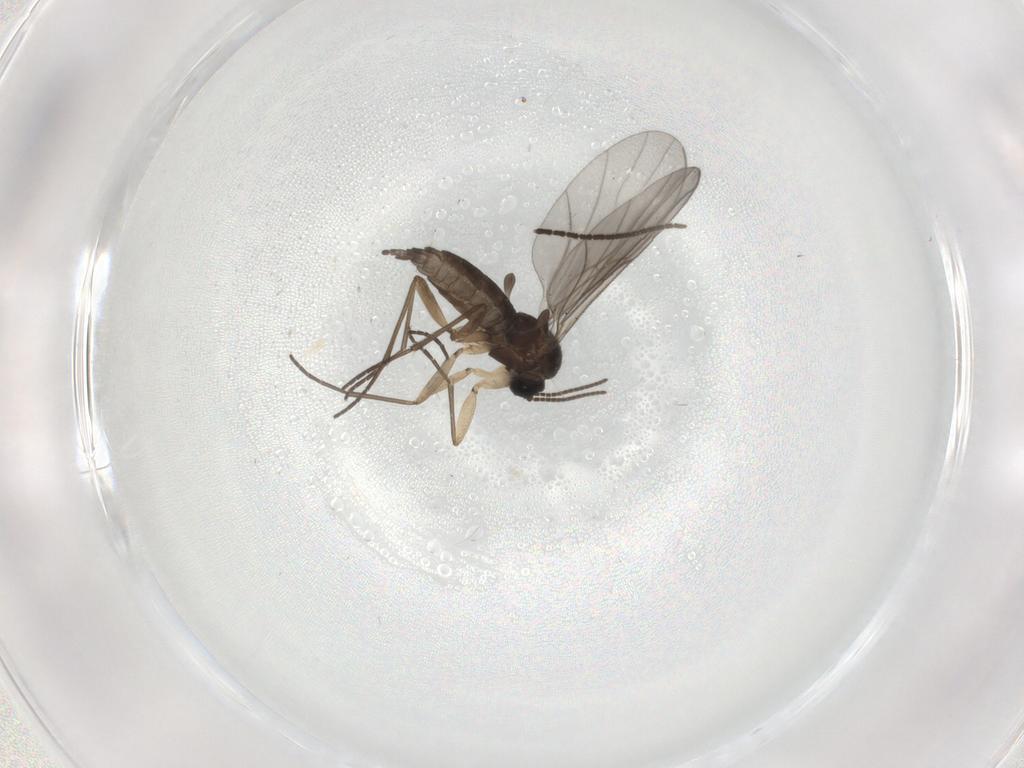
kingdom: Animalia
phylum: Arthropoda
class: Insecta
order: Diptera
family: Sciaridae
